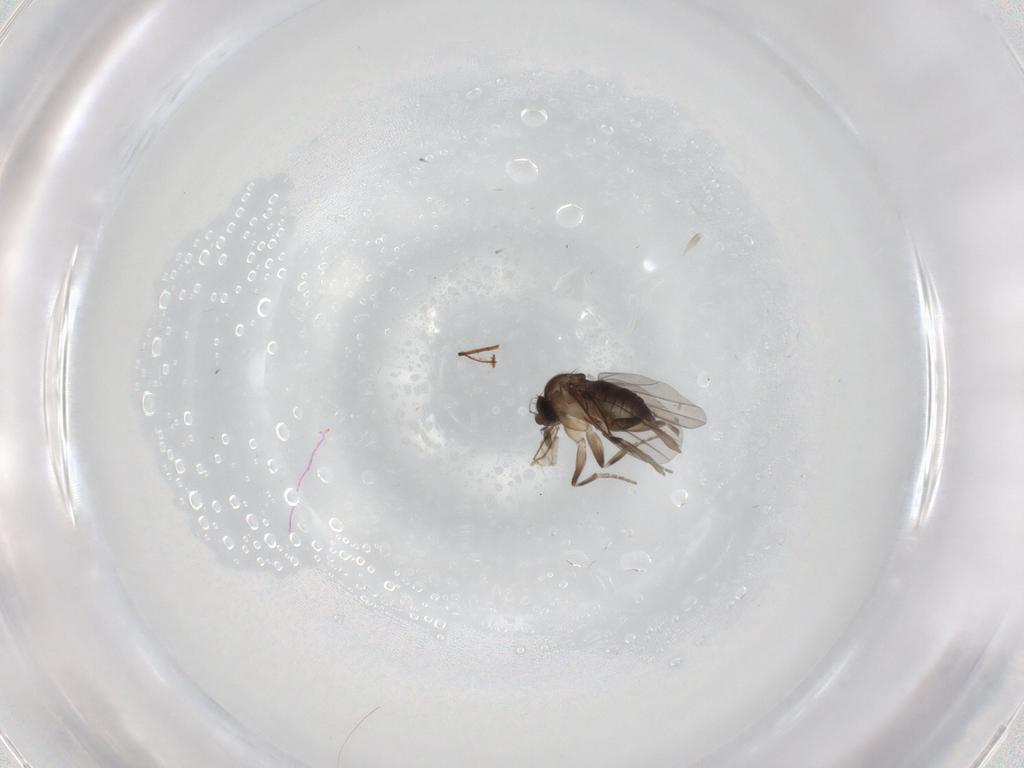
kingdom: Animalia
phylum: Arthropoda
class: Insecta
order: Diptera
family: Phoridae
